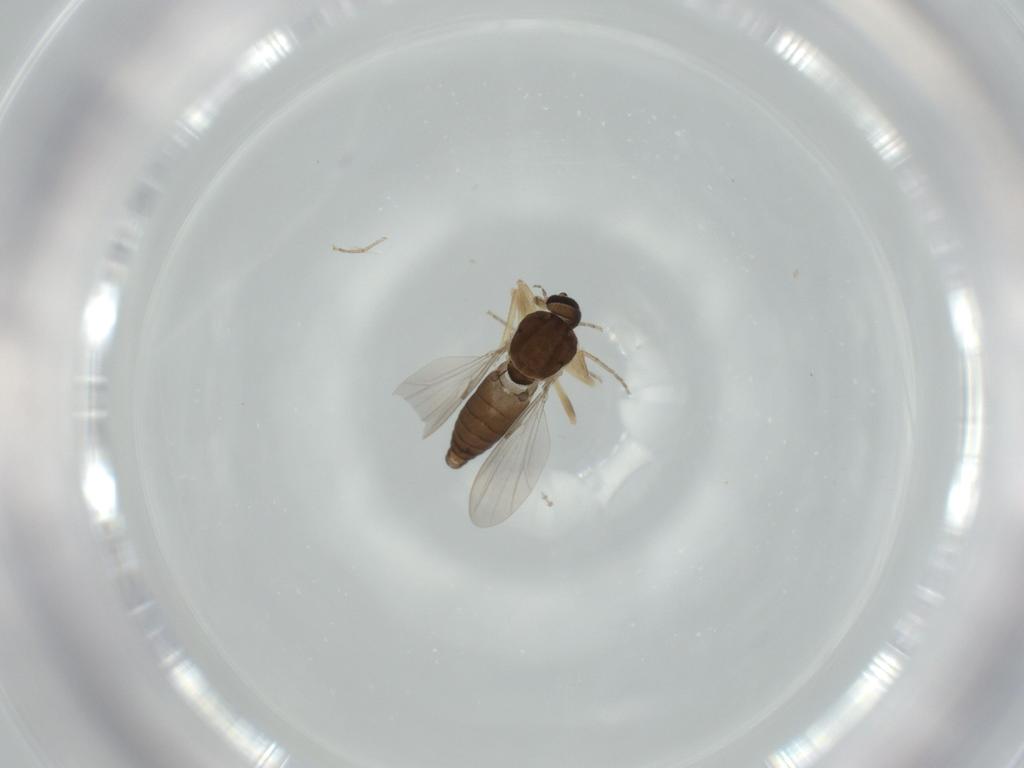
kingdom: Animalia
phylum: Arthropoda
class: Insecta
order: Diptera
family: Ceratopogonidae
